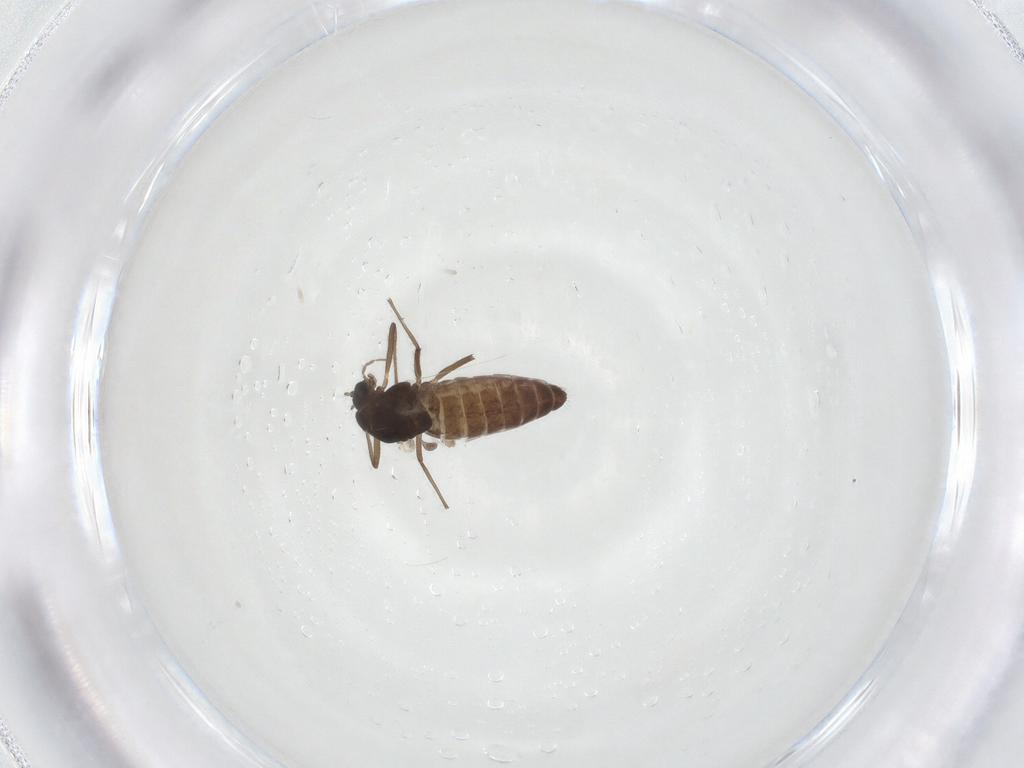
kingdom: Animalia
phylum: Arthropoda
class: Insecta
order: Diptera
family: Chironomidae
